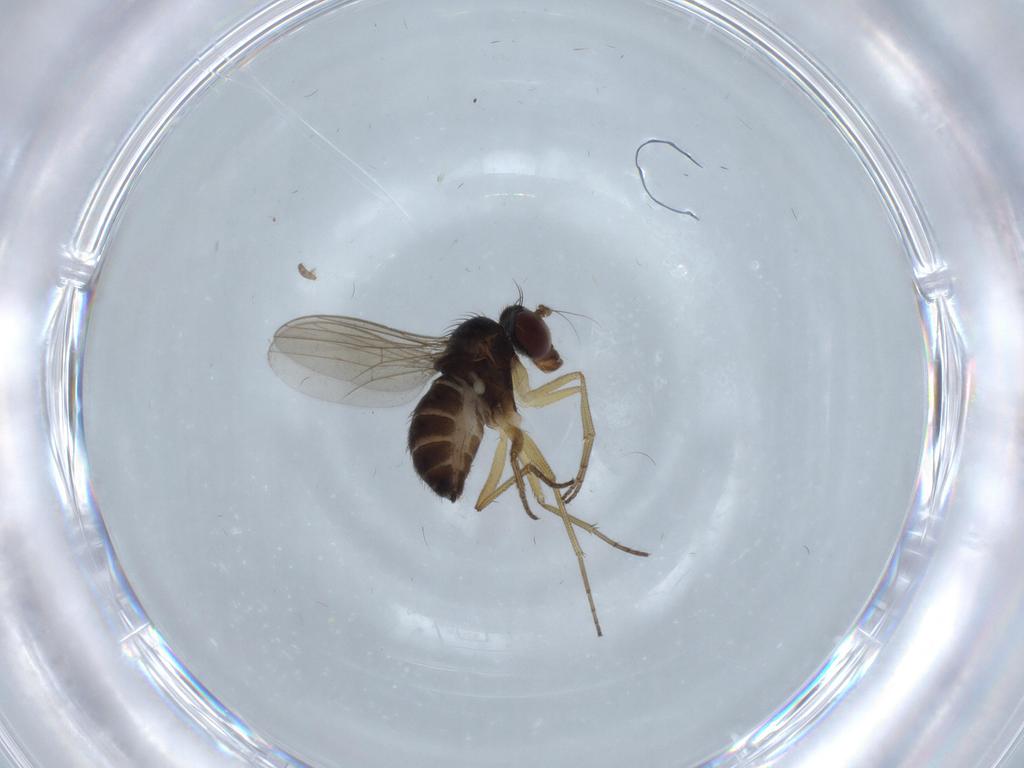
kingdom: Animalia
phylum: Arthropoda
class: Insecta
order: Diptera
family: Dolichopodidae
